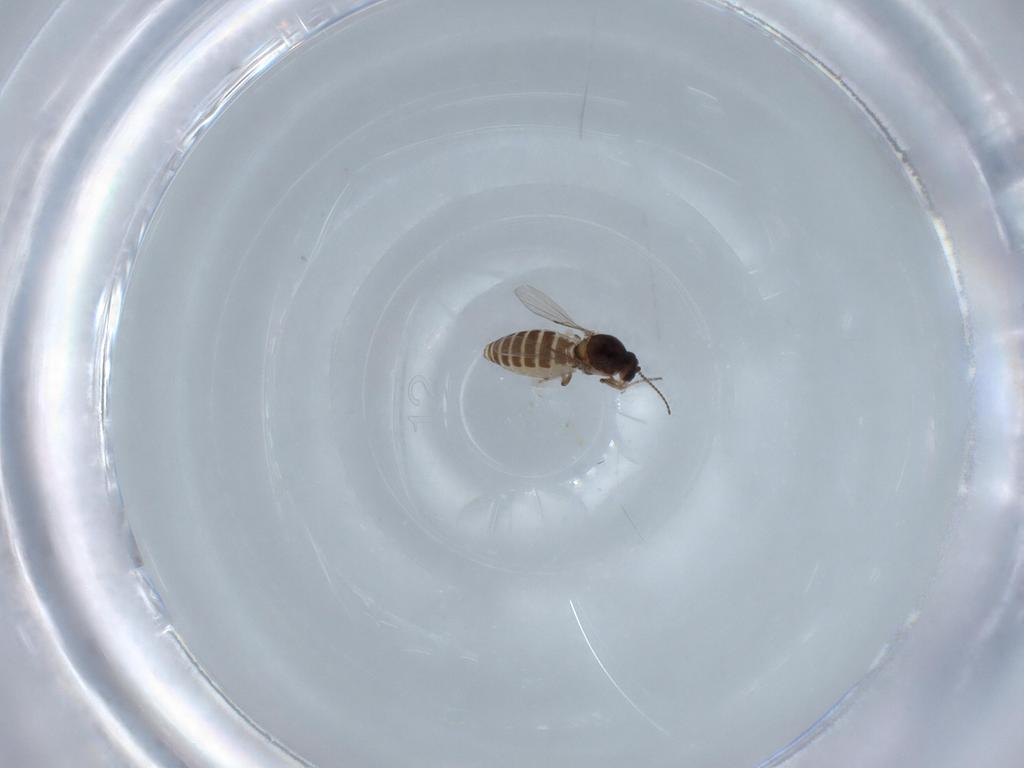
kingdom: Animalia
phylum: Arthropoda
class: Insecta
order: Diptera
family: Ceratopogonidae
